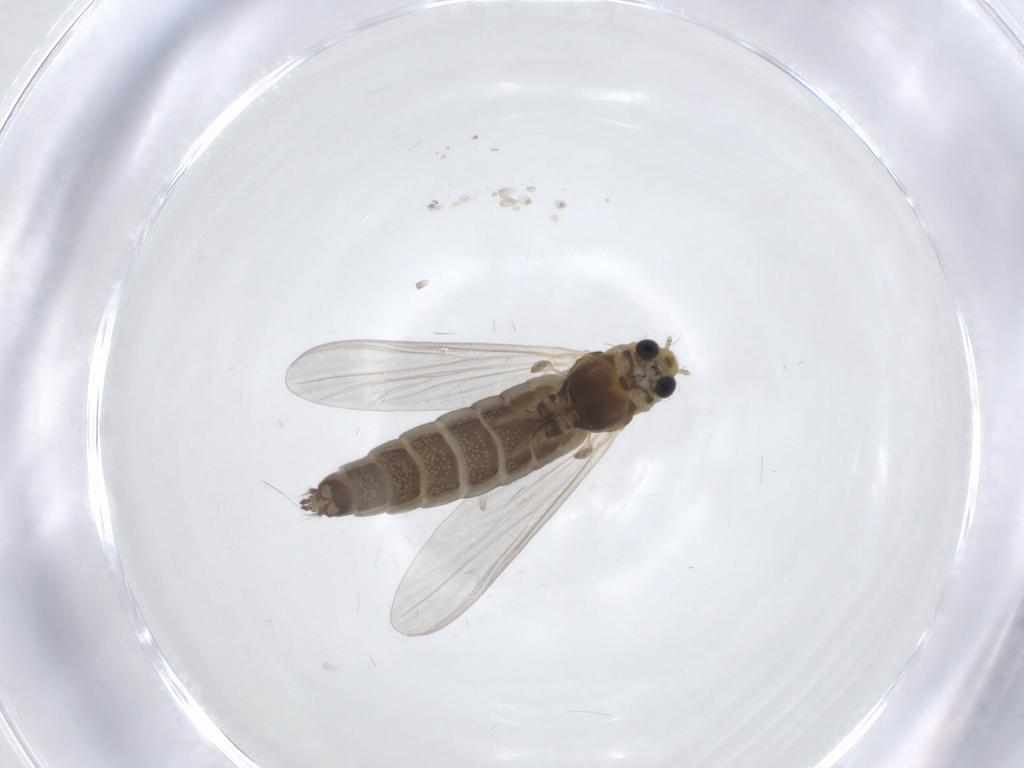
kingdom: Animalia
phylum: Arthropoda
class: Insecta
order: Diptera
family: Chironomidae
